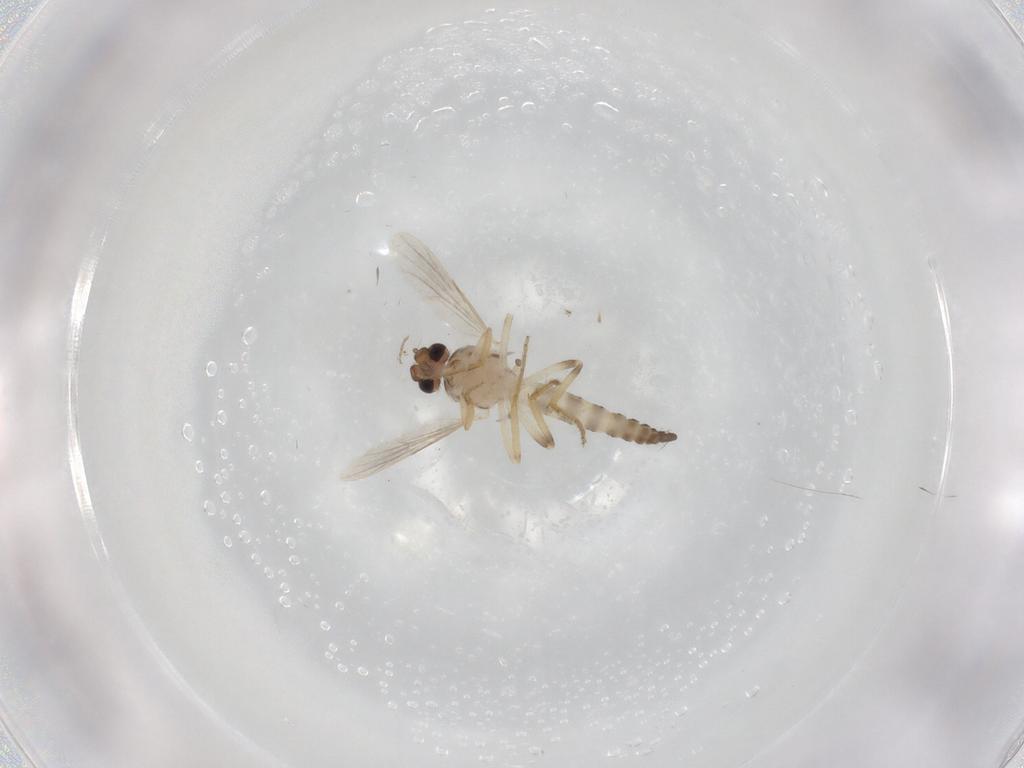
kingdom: Animalia
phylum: Arthropoda
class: Insecta
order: Diptera
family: Ceratopogonidae
